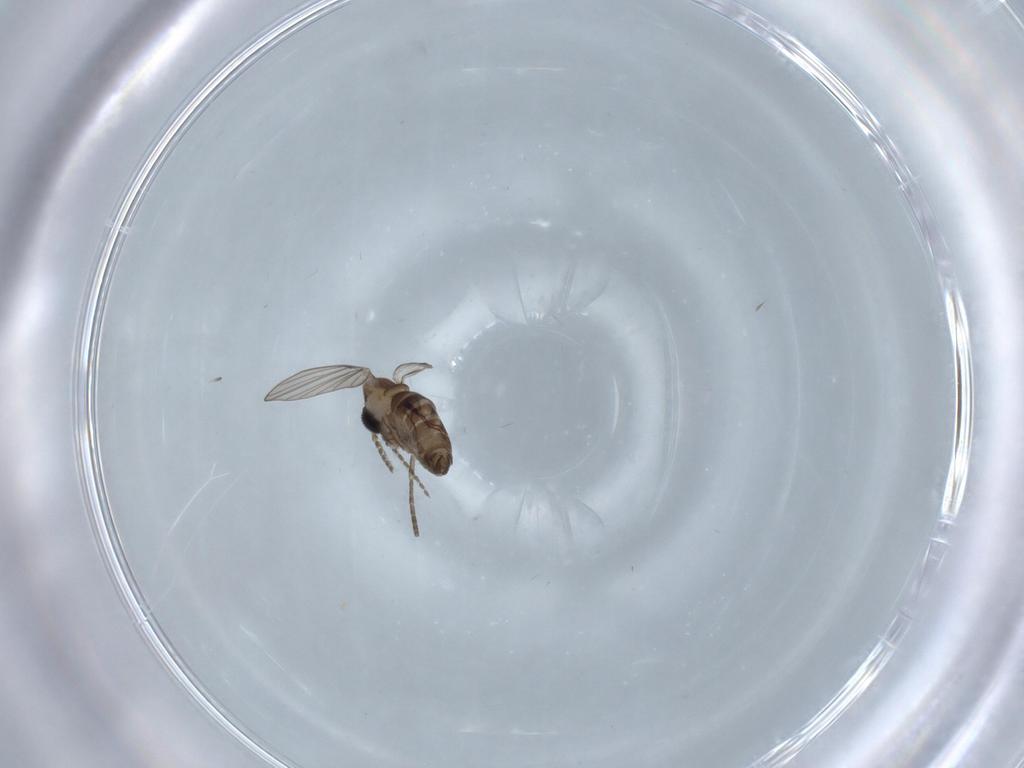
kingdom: Animalia
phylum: Arthropoda
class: Insecta
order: Diptera
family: Psychodidae
